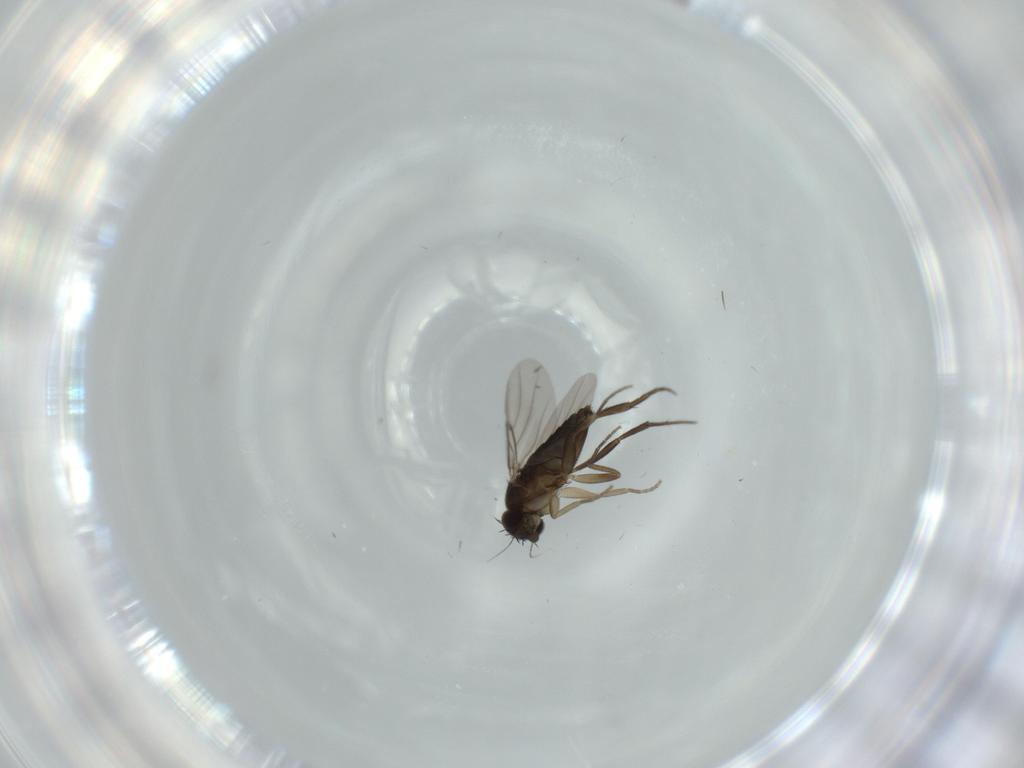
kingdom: Animalia
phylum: Arthropoda
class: Insecta
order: Diptera
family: Phoridae
